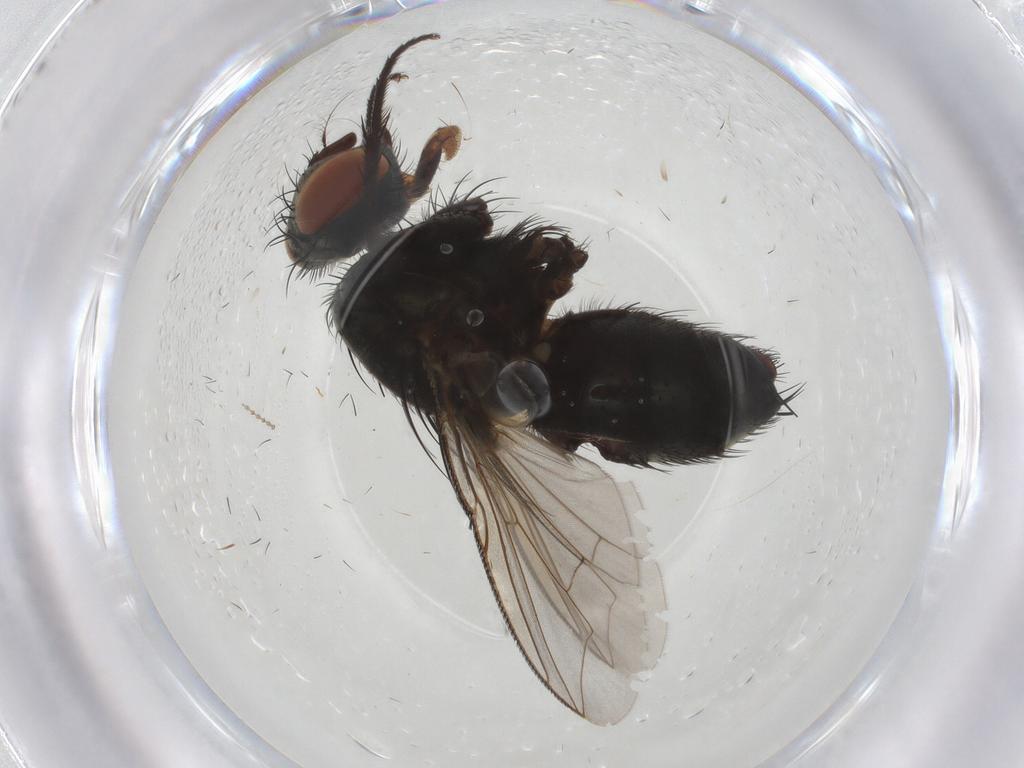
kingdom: Animalia
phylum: Arthropoda
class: Insecta
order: Diptera
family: Sarcophagidae
